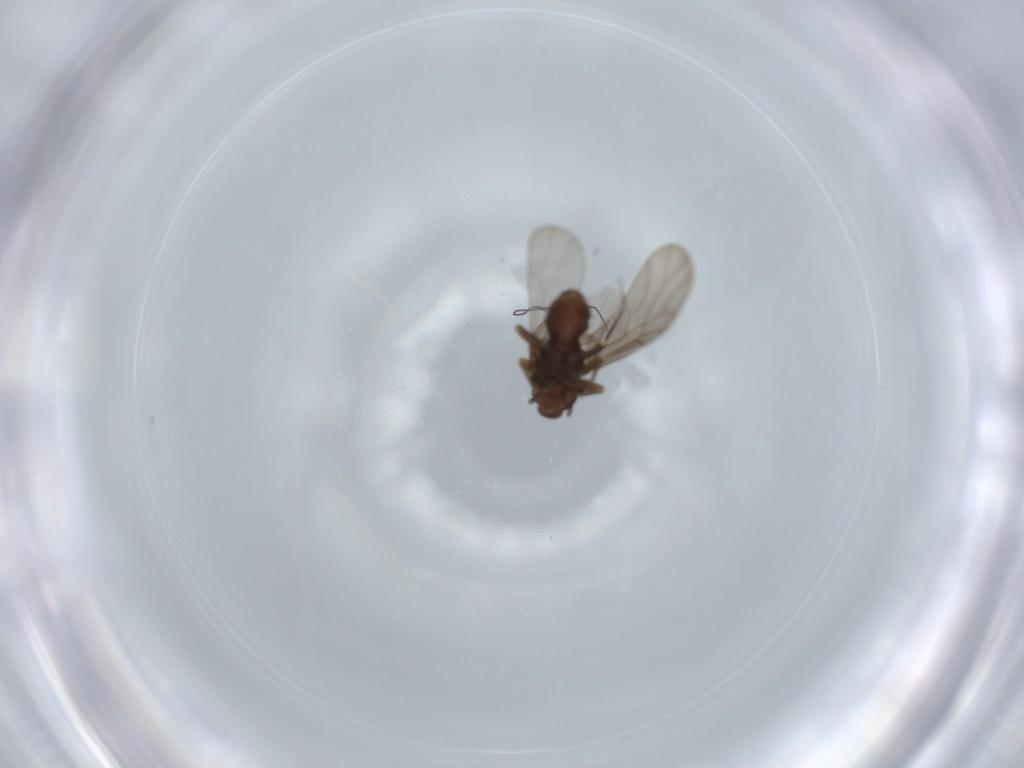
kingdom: Animalia
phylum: Arthropoda
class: Insecta
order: Psocodea
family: Lepidopsocidae
